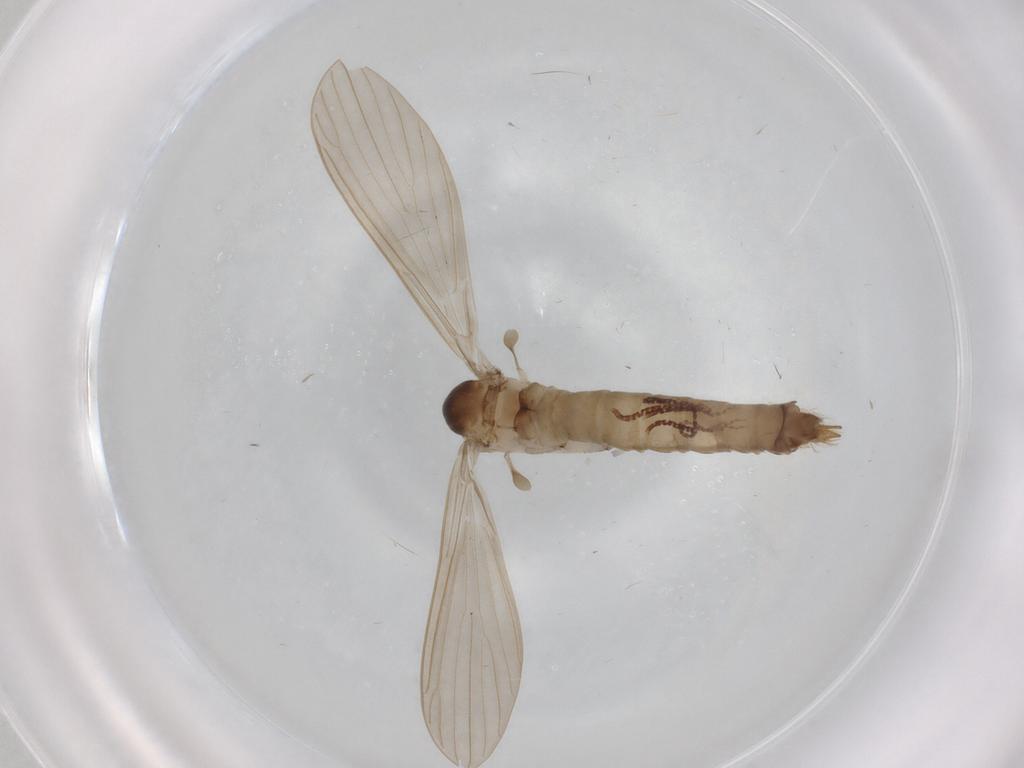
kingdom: Animalia
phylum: Arthropoda
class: Insecta
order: Diptera
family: Psychodidae
